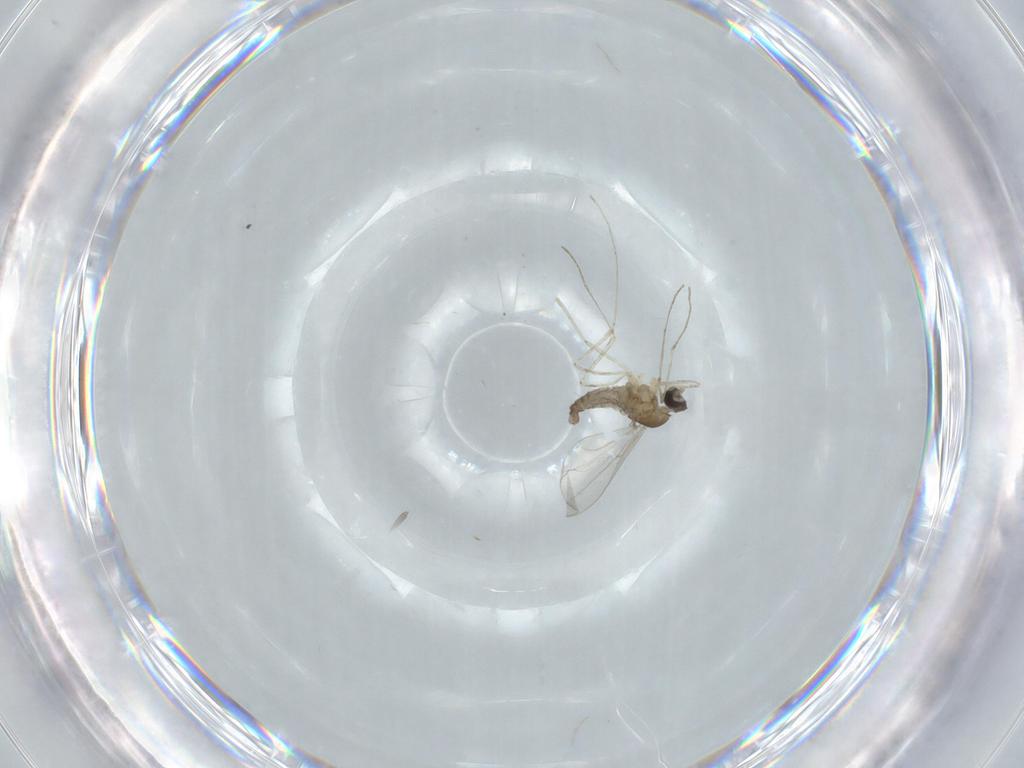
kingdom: Animalia
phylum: Arthropoda
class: Insecta
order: Diptera
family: Cecidomyiidae
